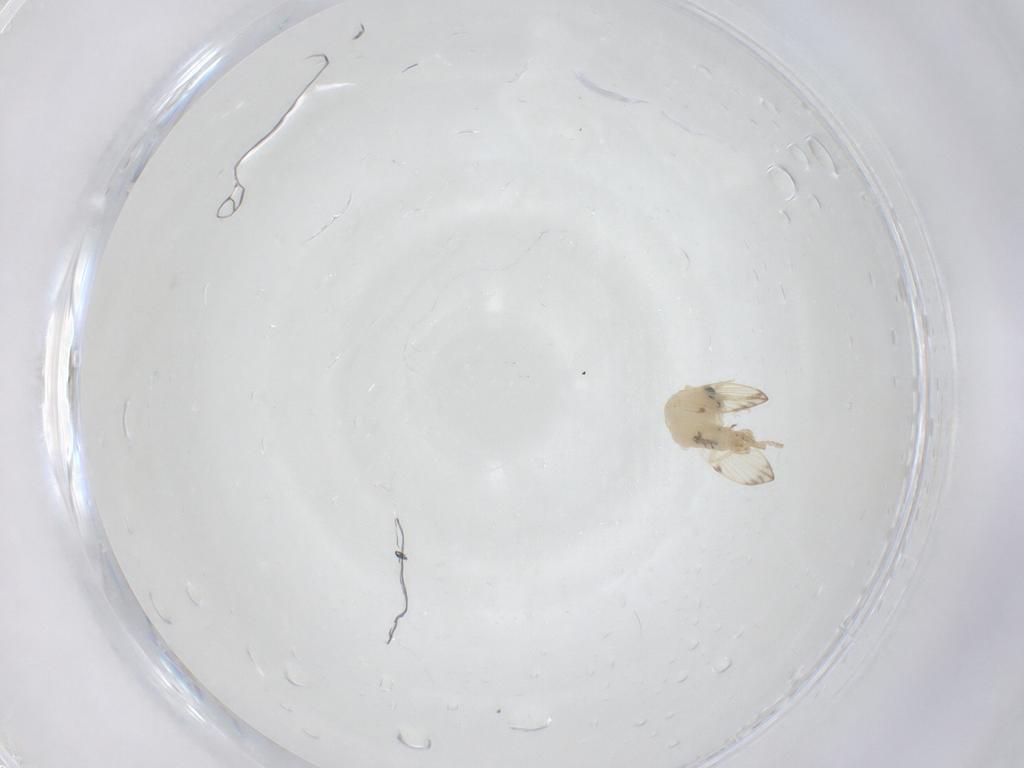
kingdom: Animalia
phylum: Arthropoda
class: Insecta
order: Diptera
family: Psychodidae
